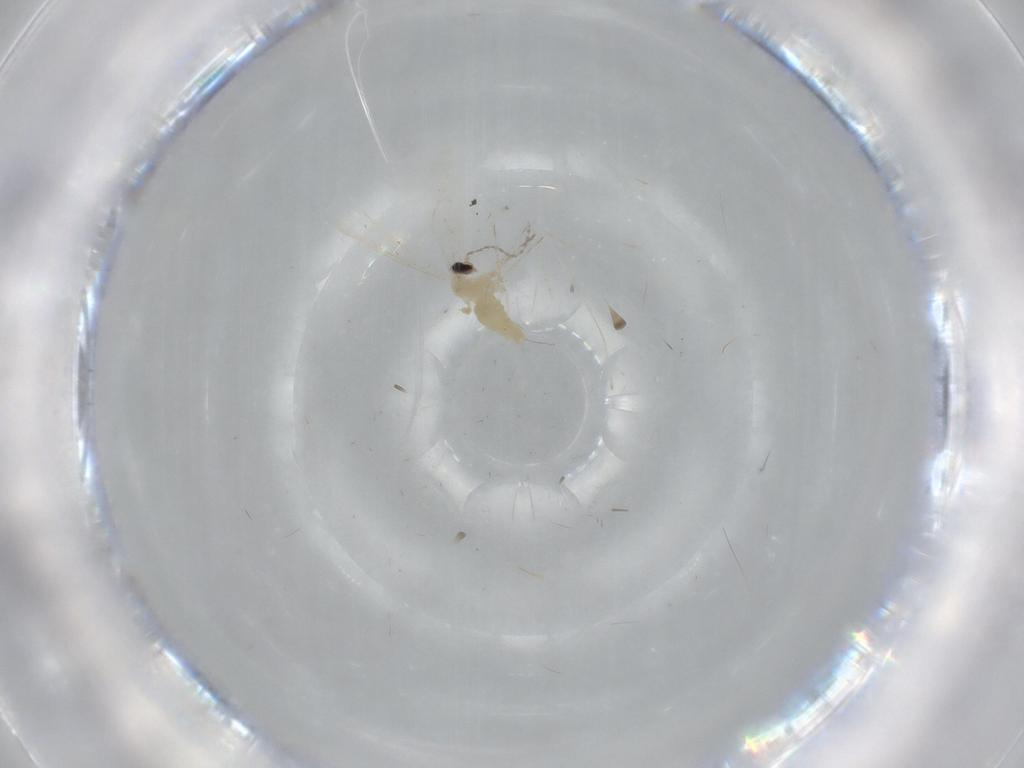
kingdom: Animalia
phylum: Arthropoda
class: Insecta
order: Diptera
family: Cecidomyiidae
